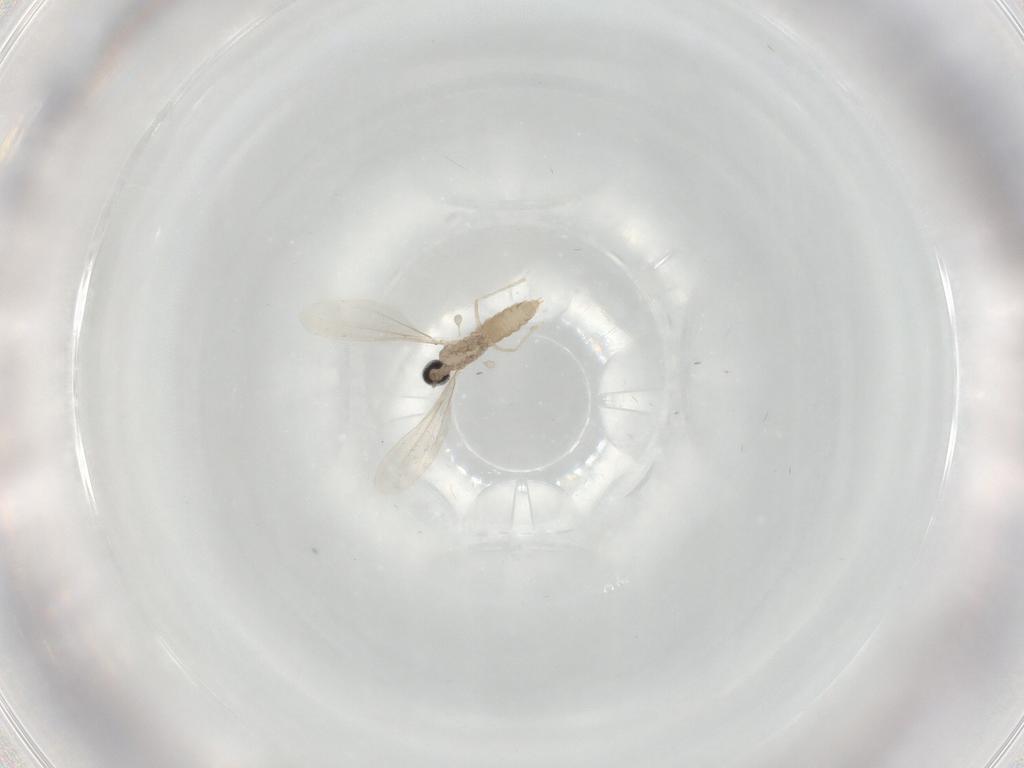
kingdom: Animalia
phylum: Arthropoda
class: Insecta
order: Diptera
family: Cecidomyiidae
